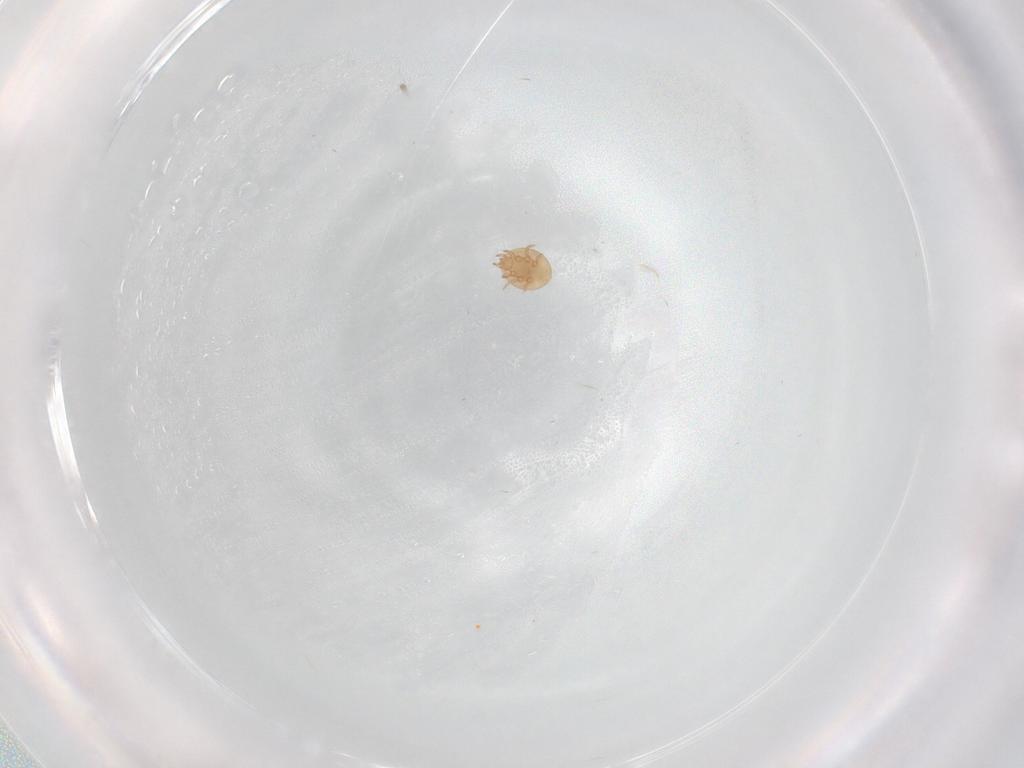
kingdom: Animalia
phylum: Arthropoda
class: Arachnida
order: Mesostigmata
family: Trematuridae
